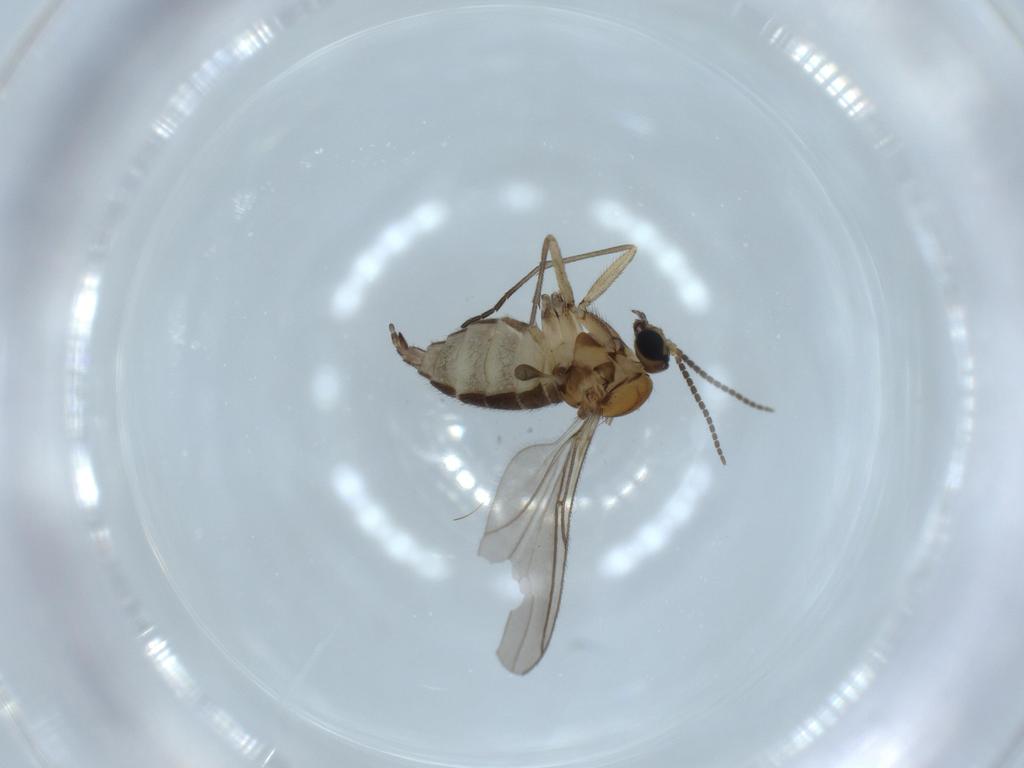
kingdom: Animalia
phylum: Arthropoda
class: Insecta
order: Diptera
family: Sciaridae
